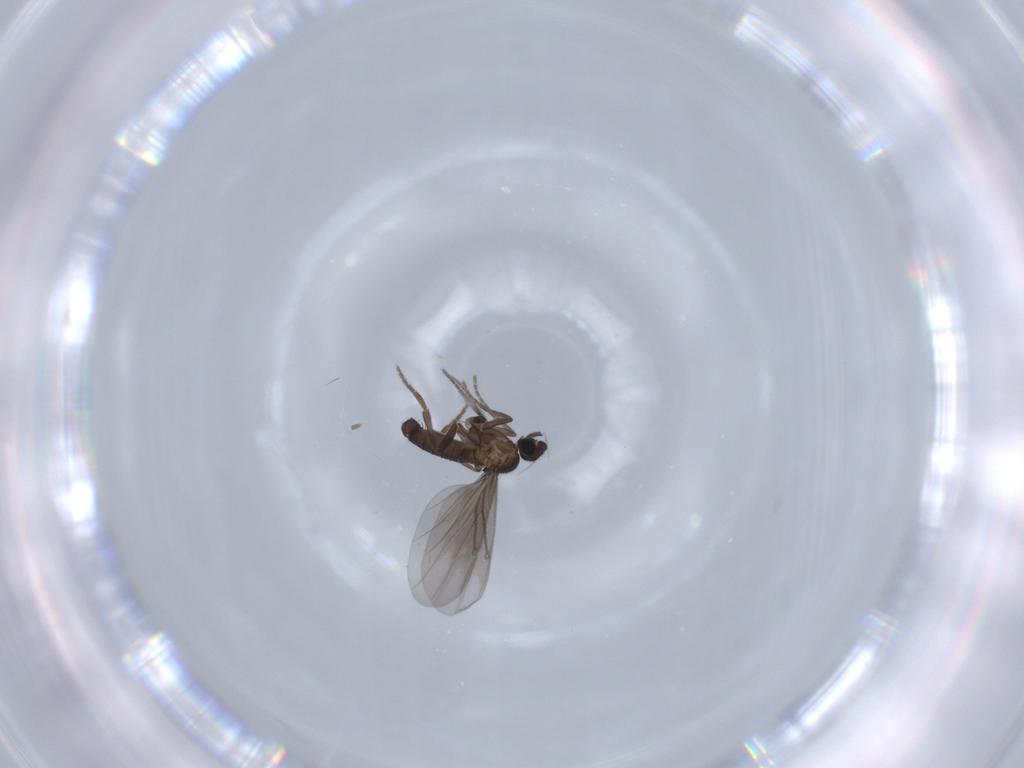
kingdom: Animalia
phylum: Arthropoda
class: Insecta
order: Diptera
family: Phoridae
